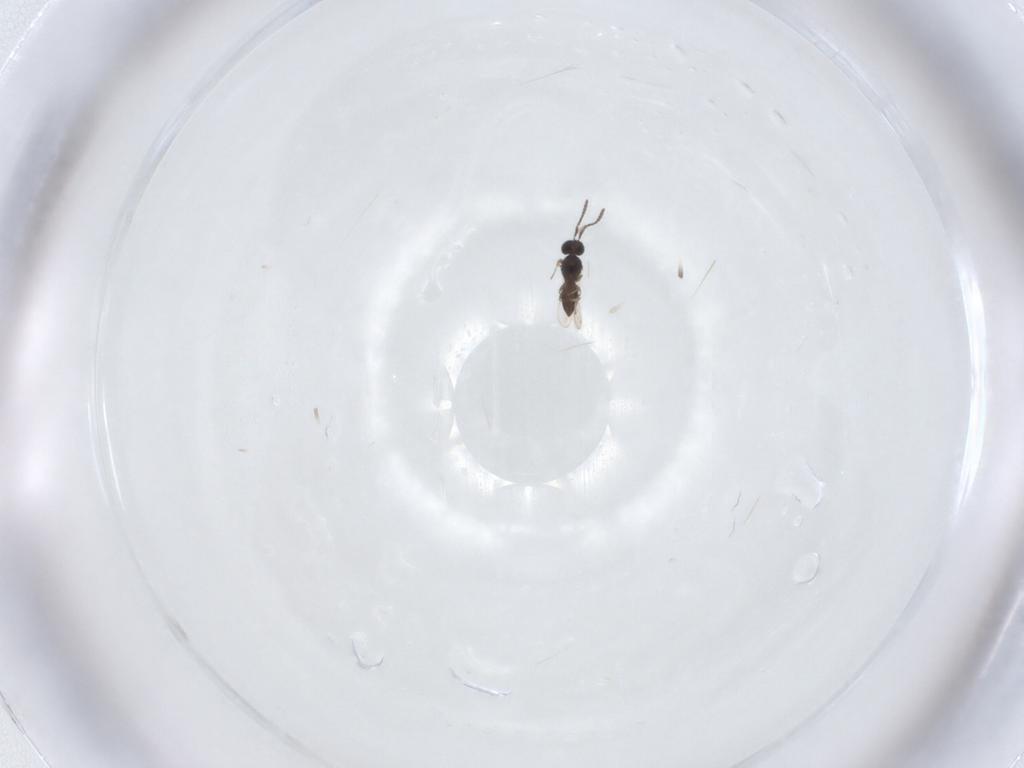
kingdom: Animalia
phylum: Arthropoda
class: Insecta
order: Hymenoptera
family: Scelionidae
